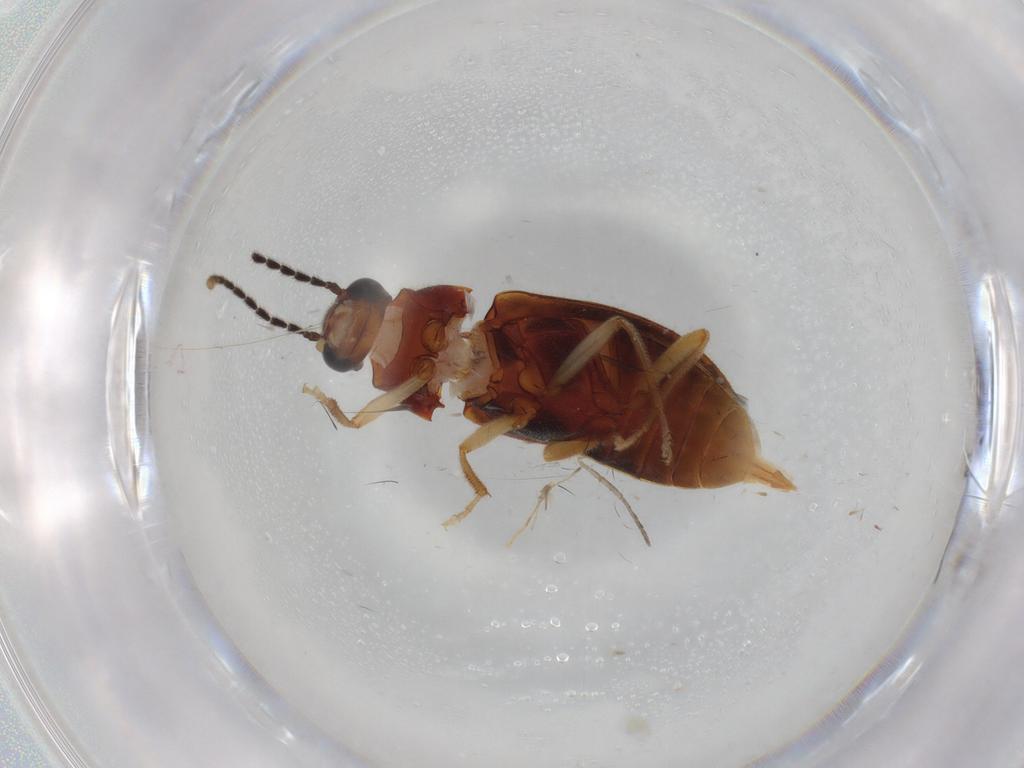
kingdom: Animalia
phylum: Arthropoda
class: Insecta
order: Coleoptera
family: Ptilodactylidae
